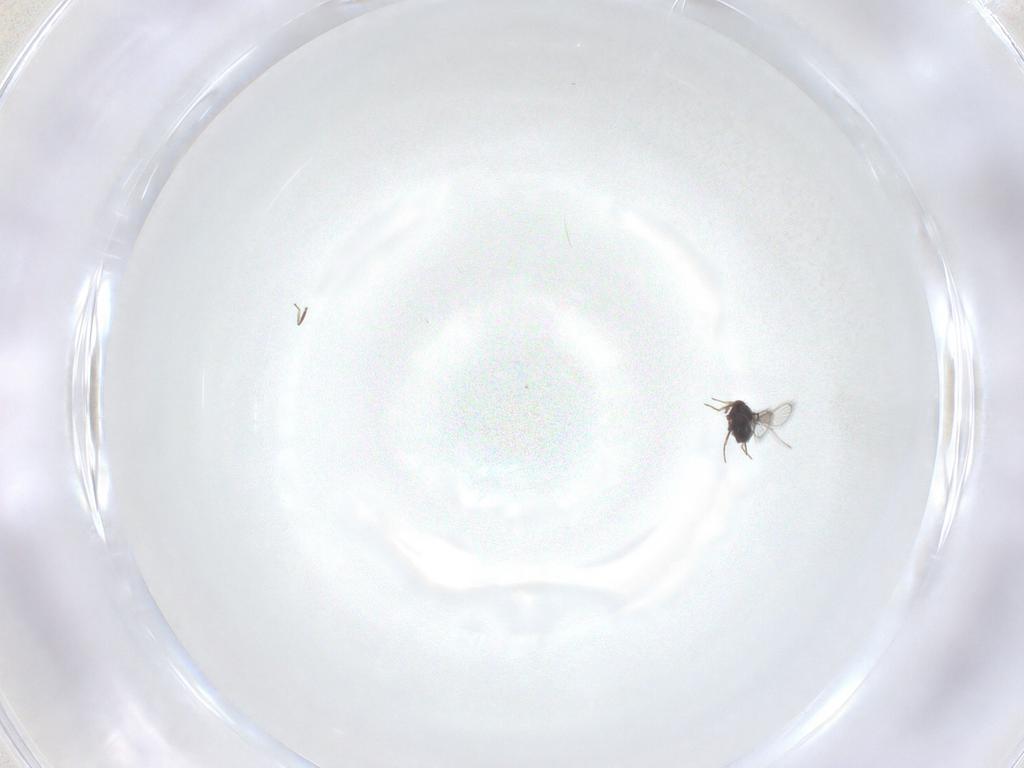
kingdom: Animalia
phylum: Arthropoda
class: Insecta
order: Hymenoptera
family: Trichogrammatidae
